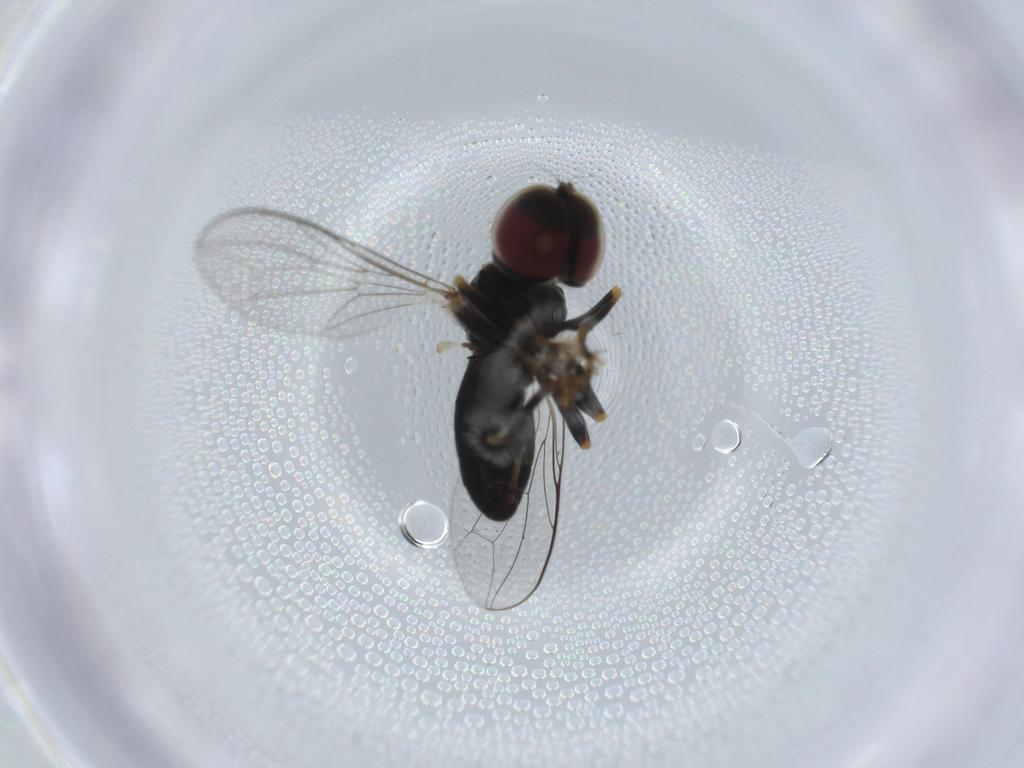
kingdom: Animalia
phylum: Arthropoda
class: Insecta
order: Diptera
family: Pipunculidae
